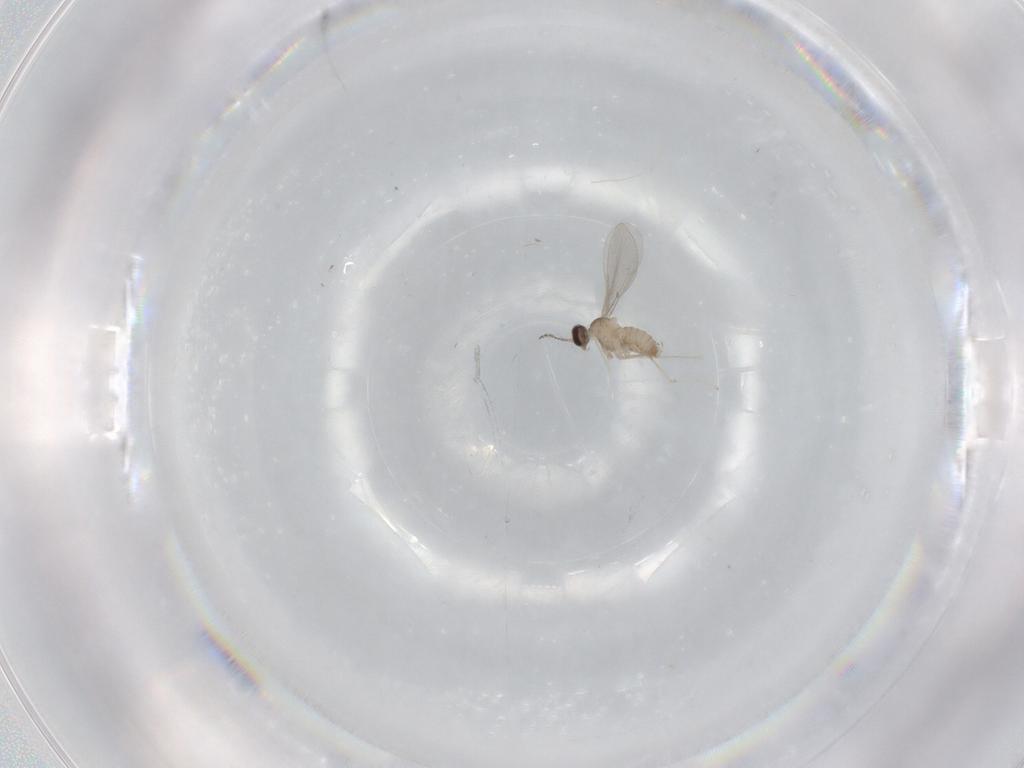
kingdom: Animalia
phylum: Arthropoda
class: Insecta
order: Diptera
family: Cecidomyiidae
